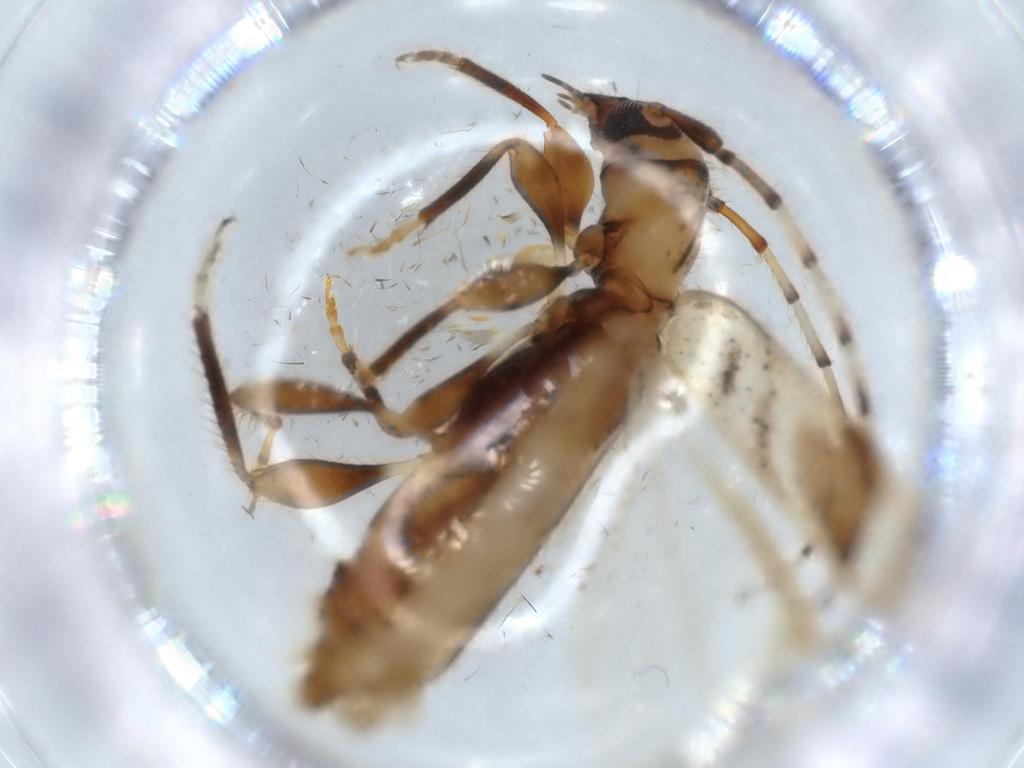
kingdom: Animalia
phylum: Arthropoda
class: Insecta
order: Coleoptera
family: Cerambycidae
